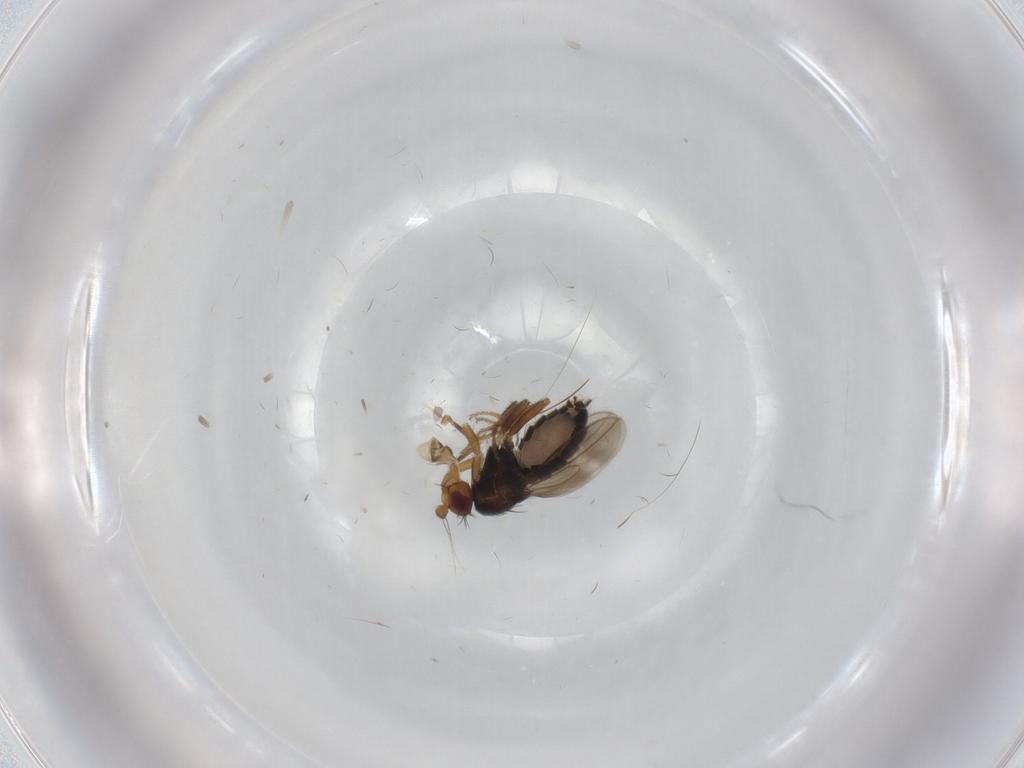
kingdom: Animalia
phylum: Arthropoda
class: Insecta
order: Diptera
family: Sphaeroceridae
